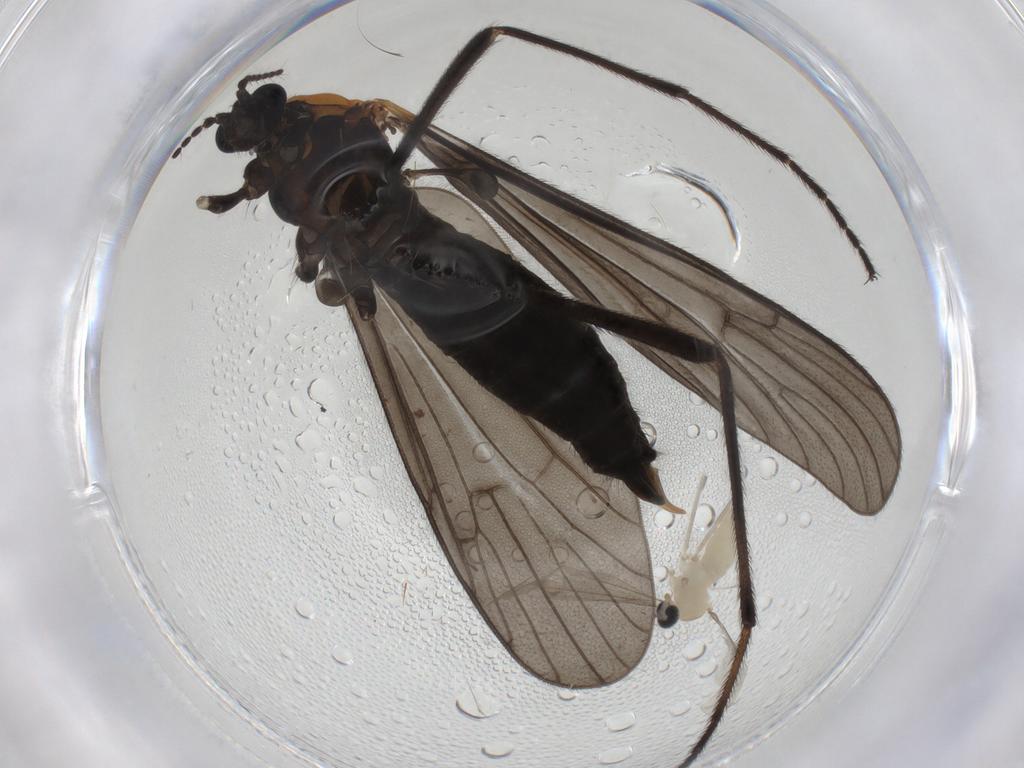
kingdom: Animalia
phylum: Arthropoda
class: Insecta
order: Diptera
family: Limoniidae
